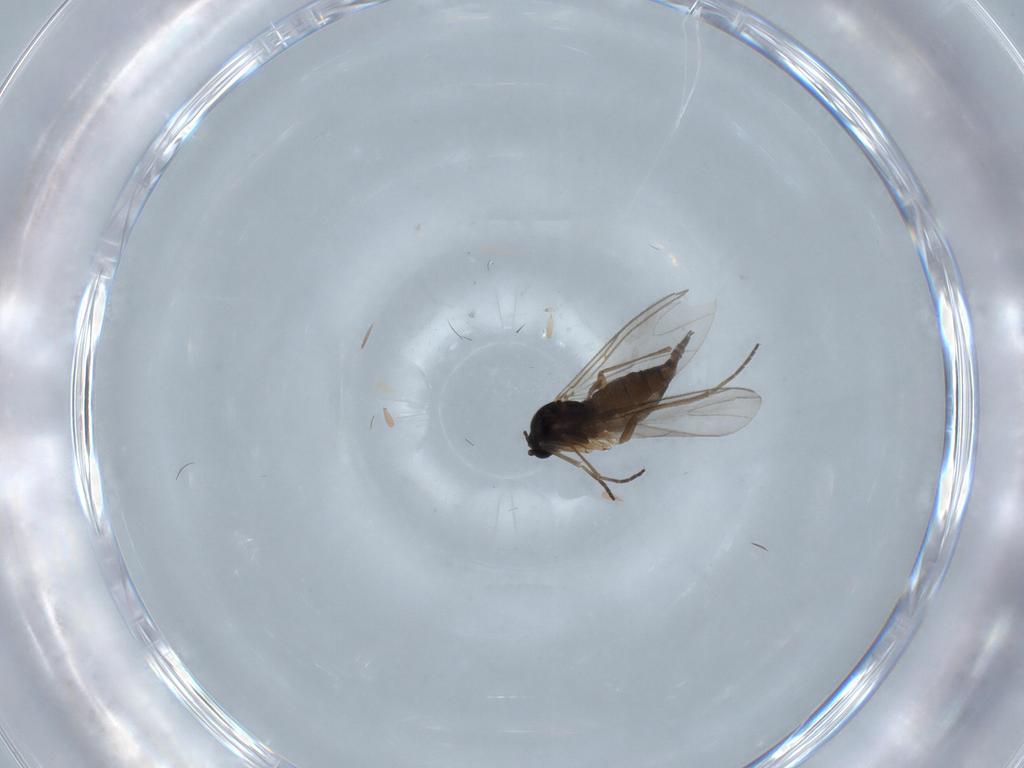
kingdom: Animalia
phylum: Arthropoda
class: Insecta
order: Diptera
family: Sciaridae
